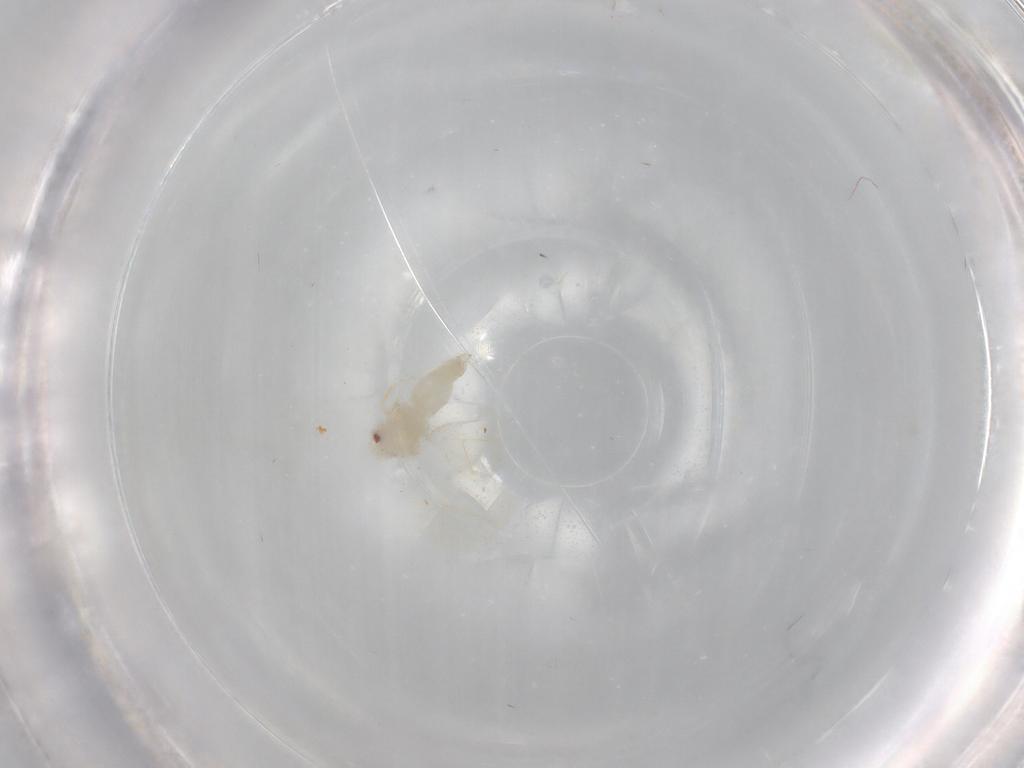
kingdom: Animalia
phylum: Arthropoda
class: Insecta
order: Hemiptera
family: Aleyrodidae
